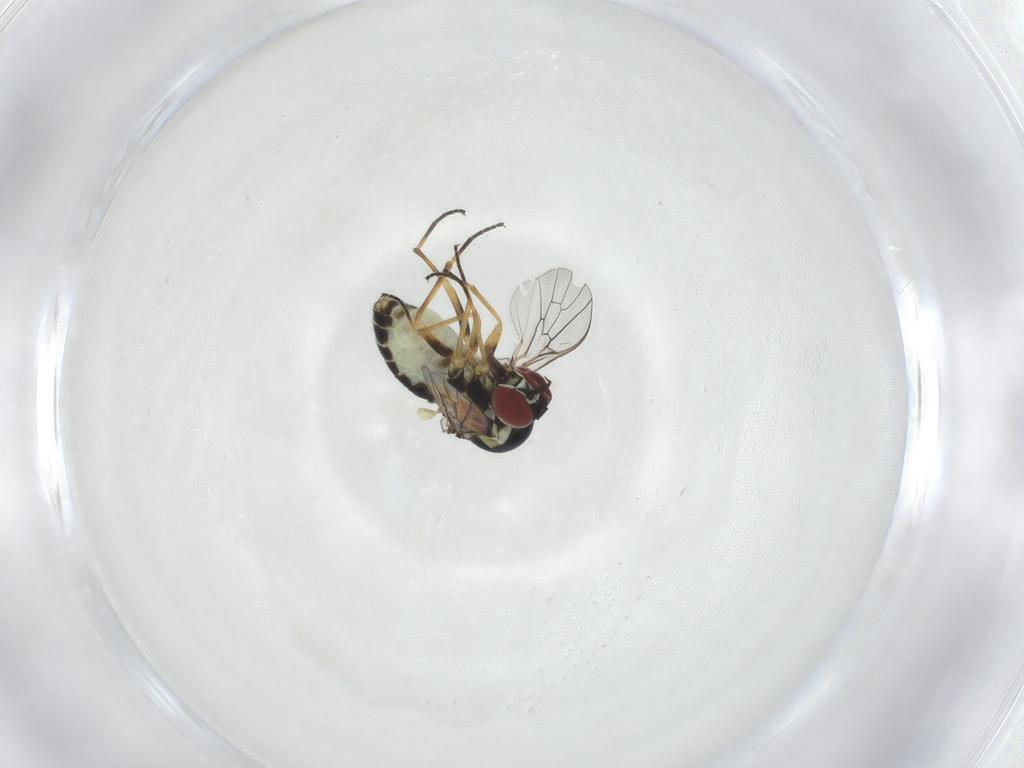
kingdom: Animalia
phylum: Arthropoda
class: Insecta
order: Diptera
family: Bombyliidae
